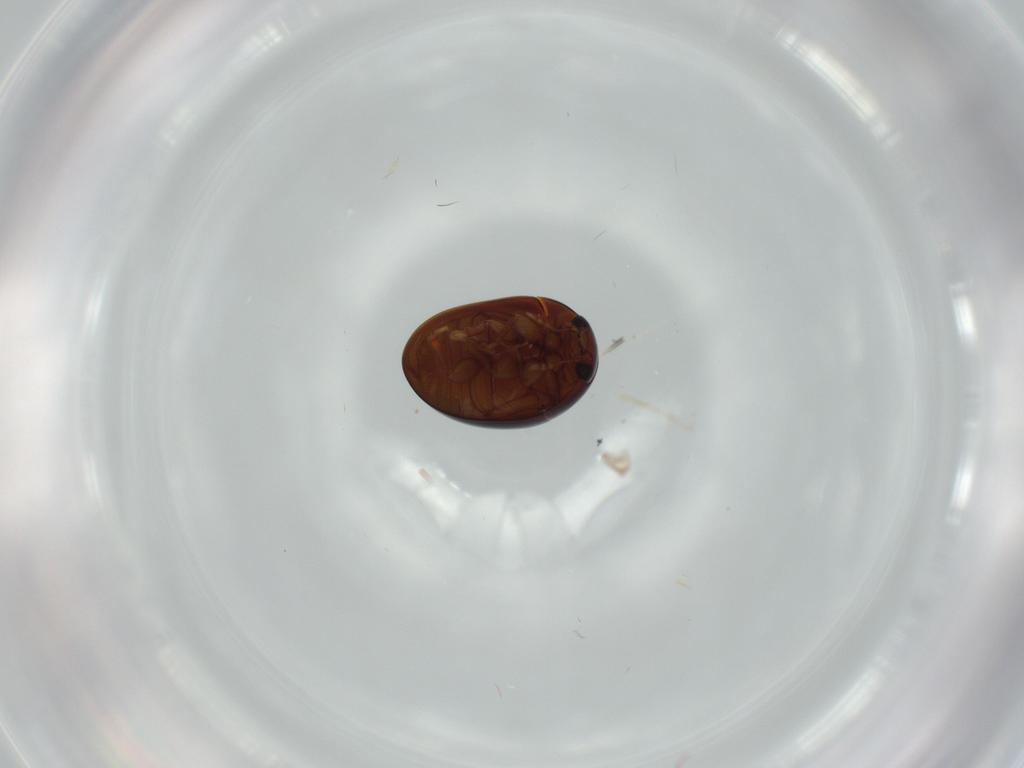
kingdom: Animalia
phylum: Arthropoda
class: Insecta
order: Coleoptera
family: Phalacridae
